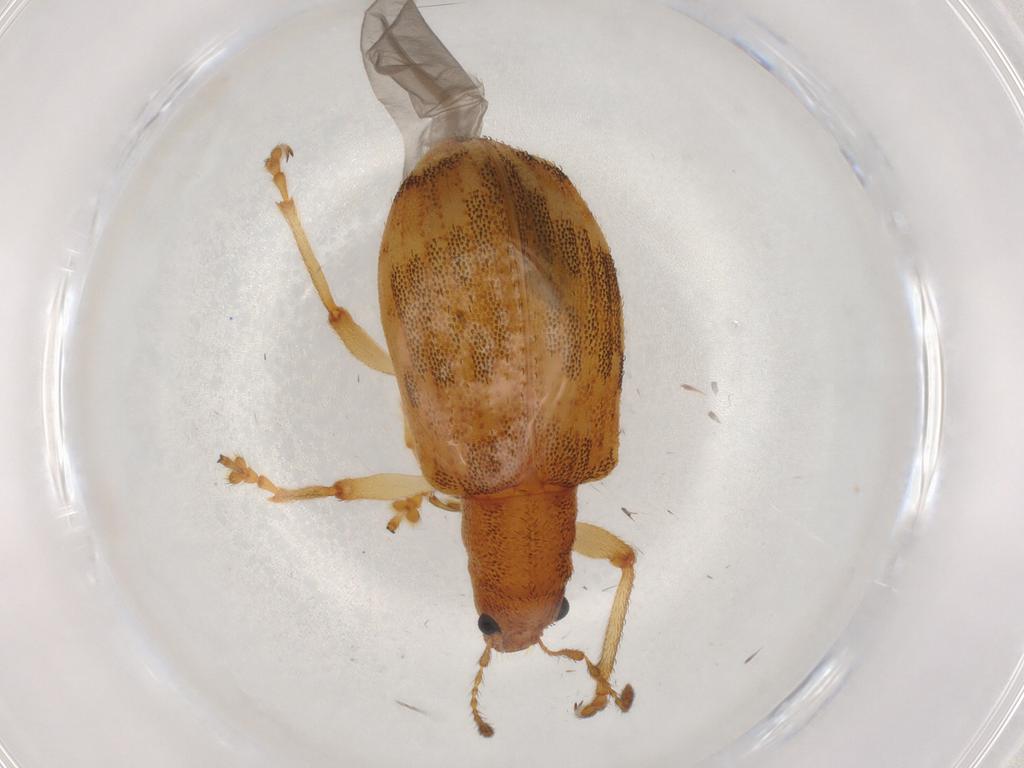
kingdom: Animalia
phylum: Arthropoda
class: Insecta
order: Coleoptera
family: Curculionidae
